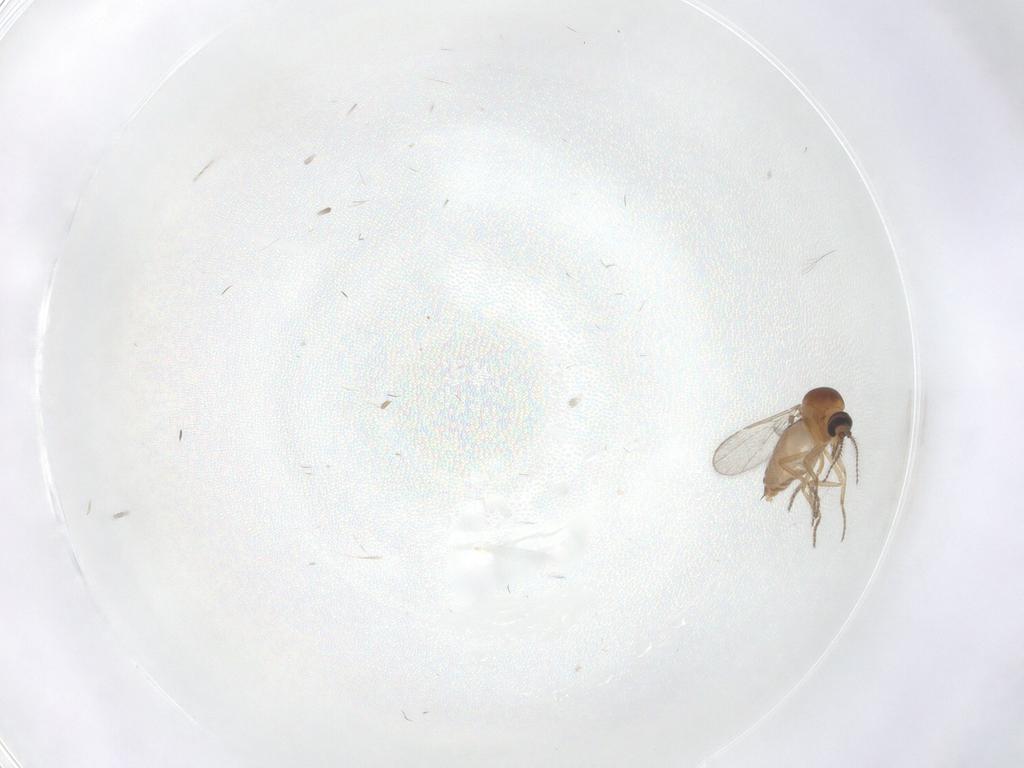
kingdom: Animalia
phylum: Arthropoda
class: Insecta
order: Diptera
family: Ceratopogonidae
